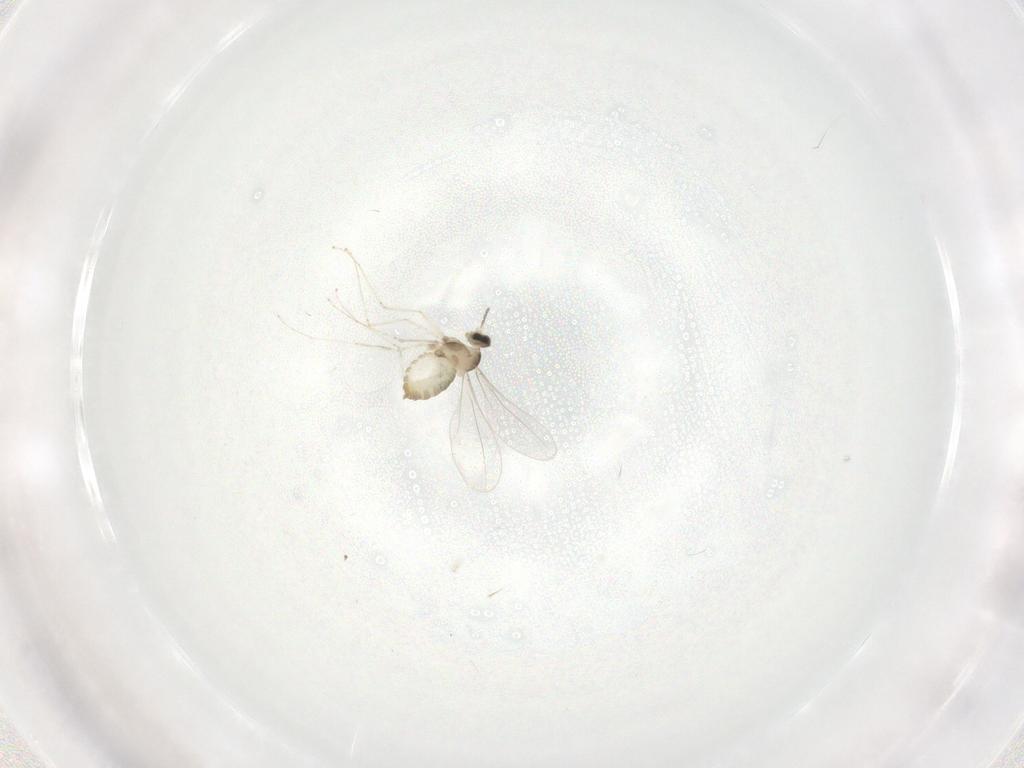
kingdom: Animalia
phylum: Arthropoda
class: Insecta
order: Diptera
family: Cecidomyiidae
